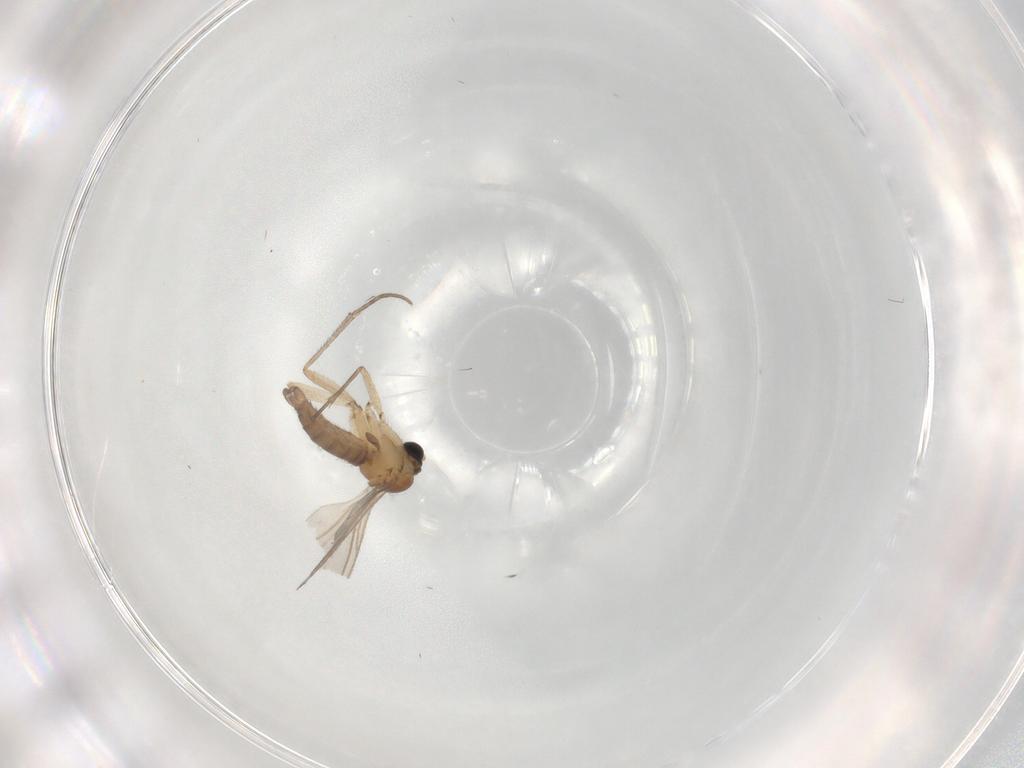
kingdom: Animalia
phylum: Arthropoda
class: Insecta
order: Diptera
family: Sciaridae
